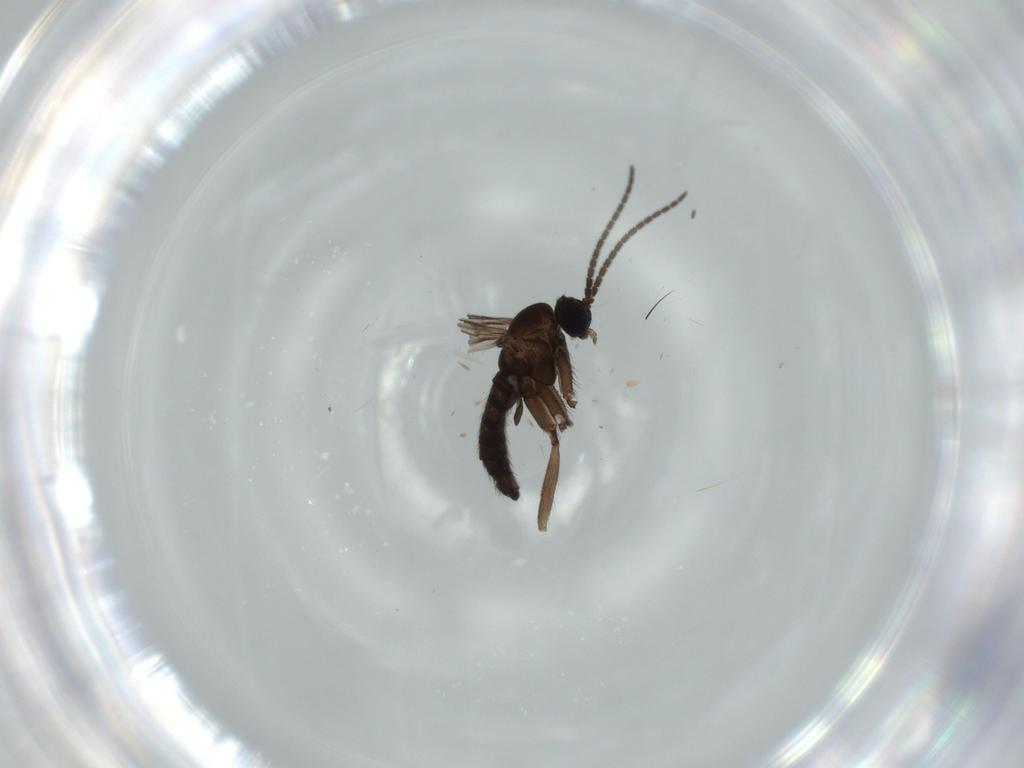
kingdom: Animalia
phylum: Arthropoda
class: Insecta
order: Diptera
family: Sciaridae
